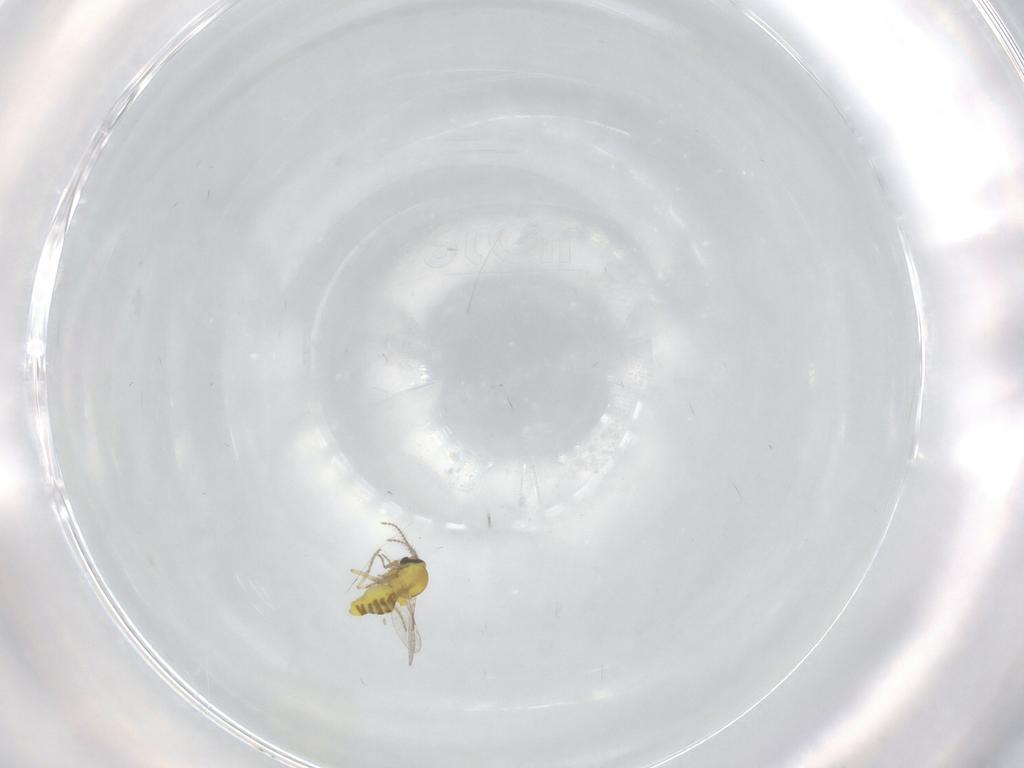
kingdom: Animalia
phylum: Arthropoda
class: Insecta
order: Diptera
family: Ceratopogonidae
